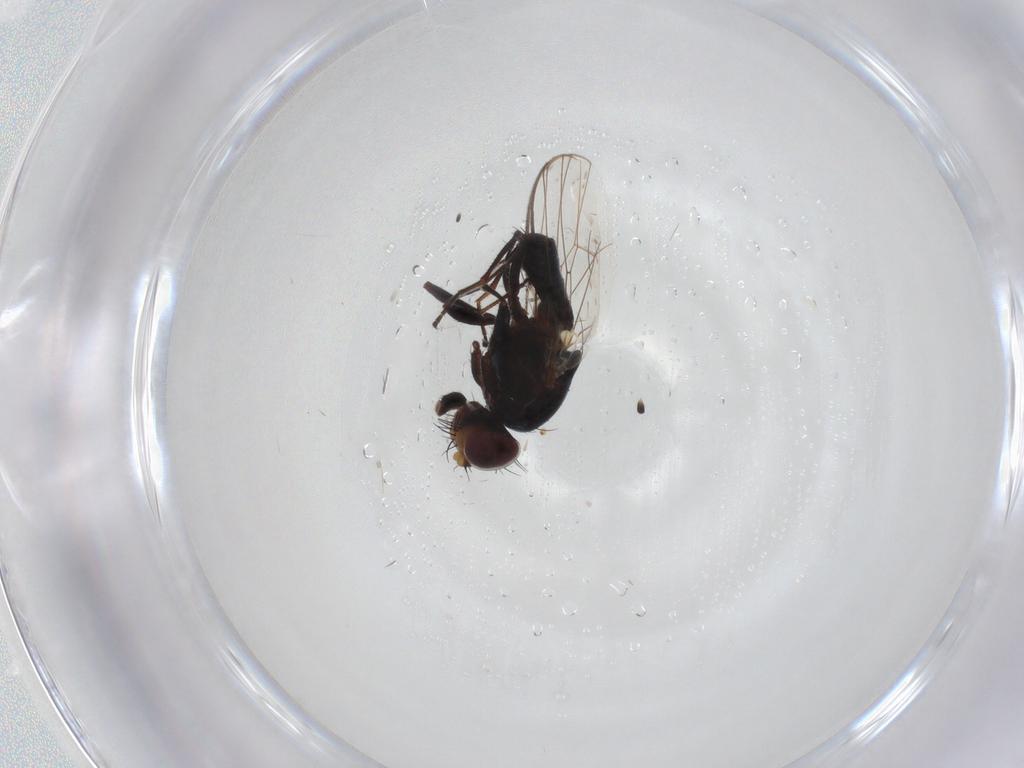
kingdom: Animalia
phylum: Arthropoda
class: Insecta
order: Diptera
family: Carnidae
